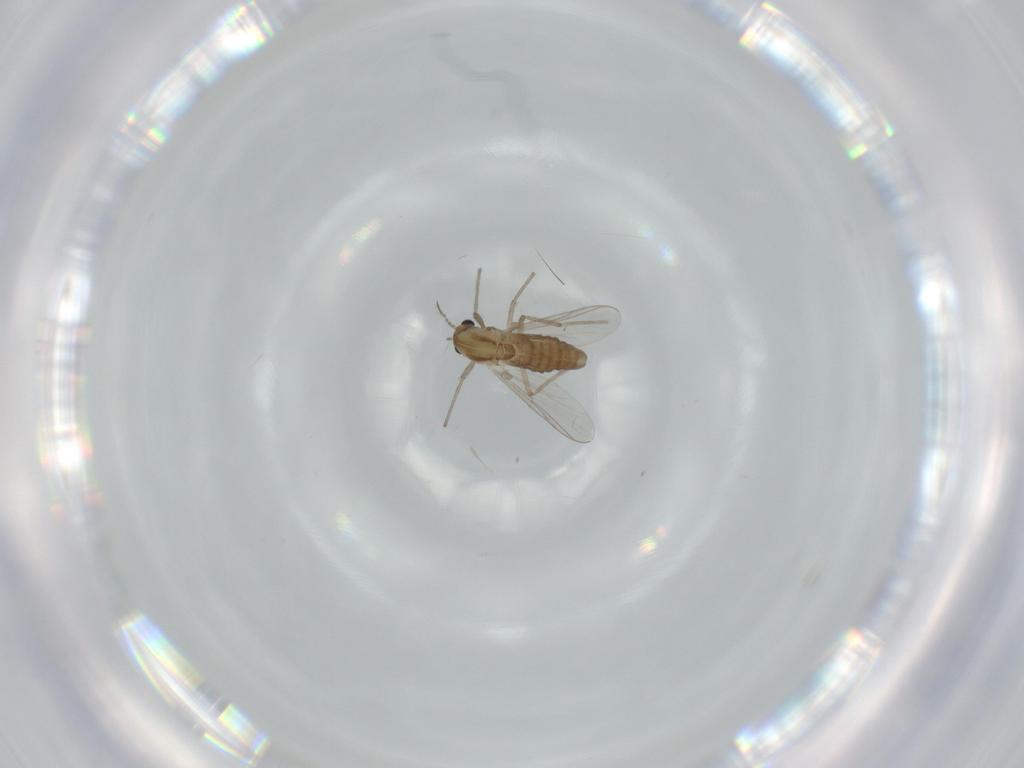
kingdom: Animalia
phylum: Arthropoda
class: Insecta
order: Diptera
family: Chironomidae
